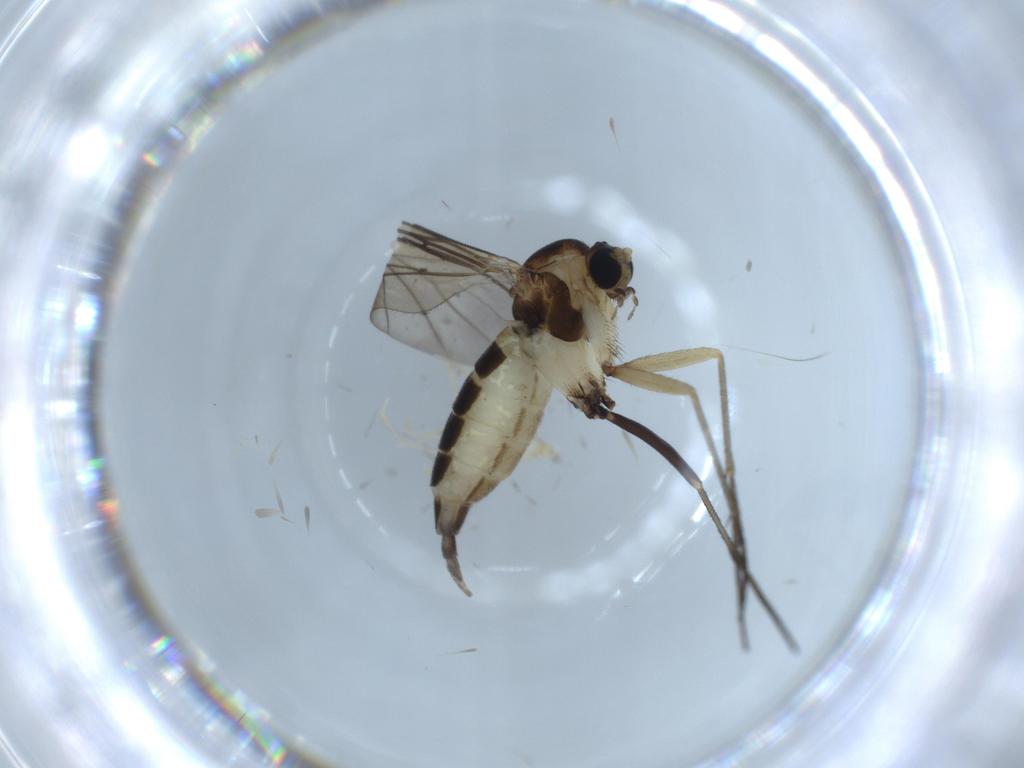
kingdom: Animalia
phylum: Arthropoda
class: Insecta
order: Diptera
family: Sciaridae
